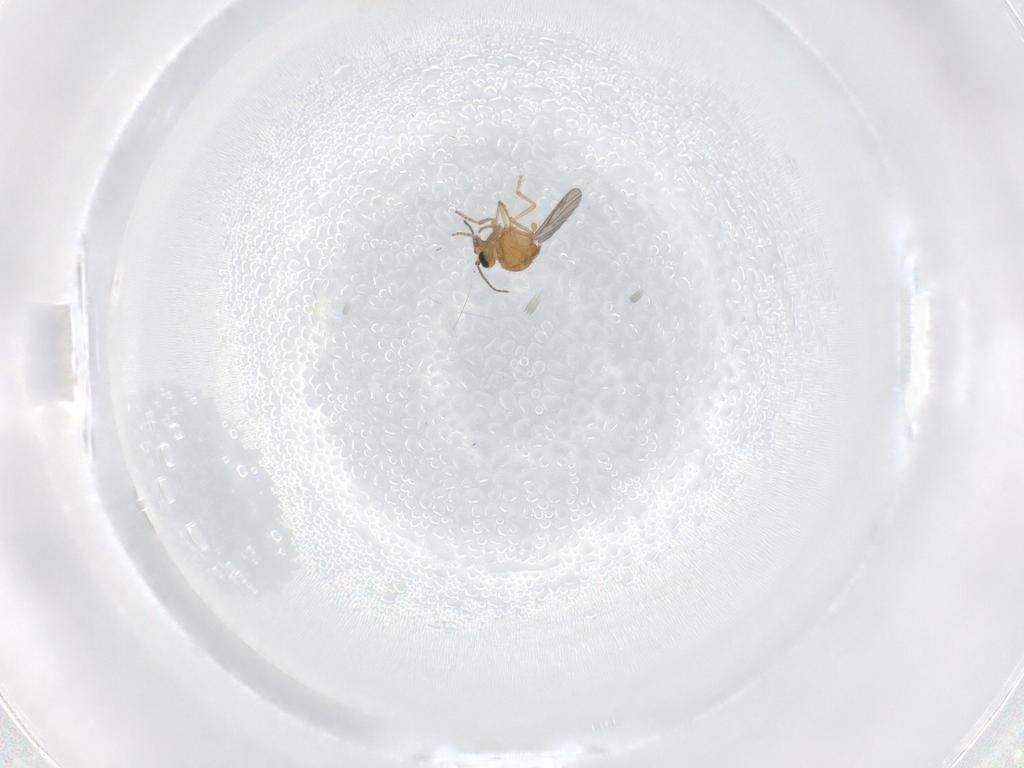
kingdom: Animalia
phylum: Arthropoda
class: Insecta
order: Diptera
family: Ceratopogonidae
